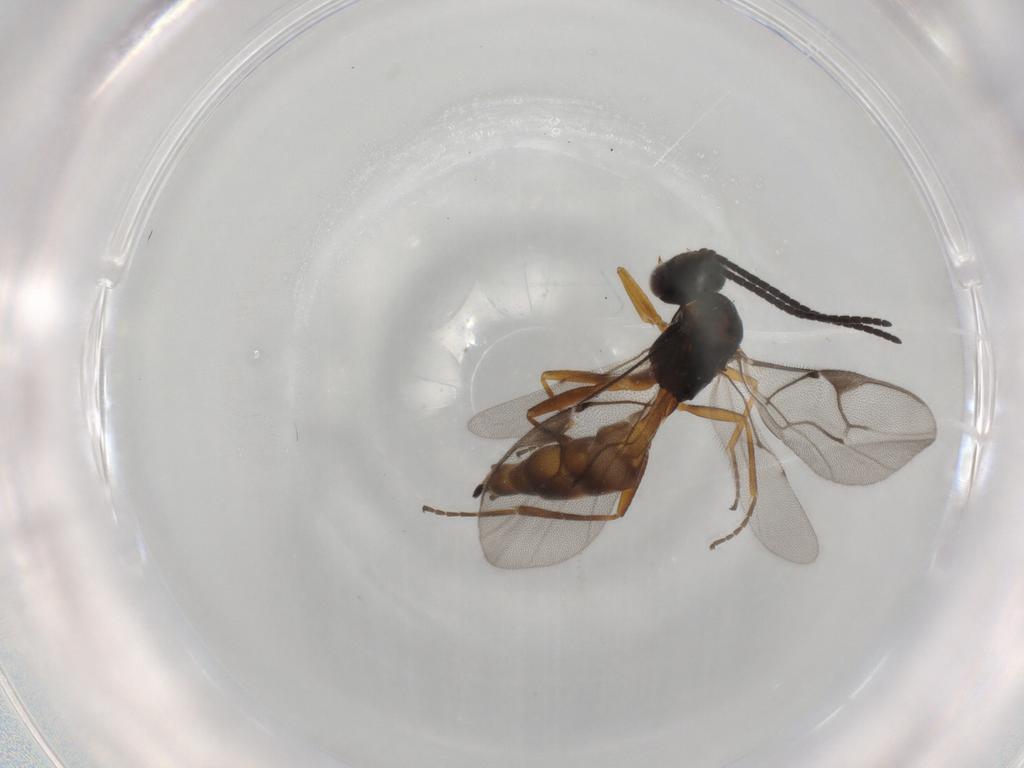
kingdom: Animalia
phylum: Arthropoda
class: Insecta
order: Hymenoptera
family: Braconidae
